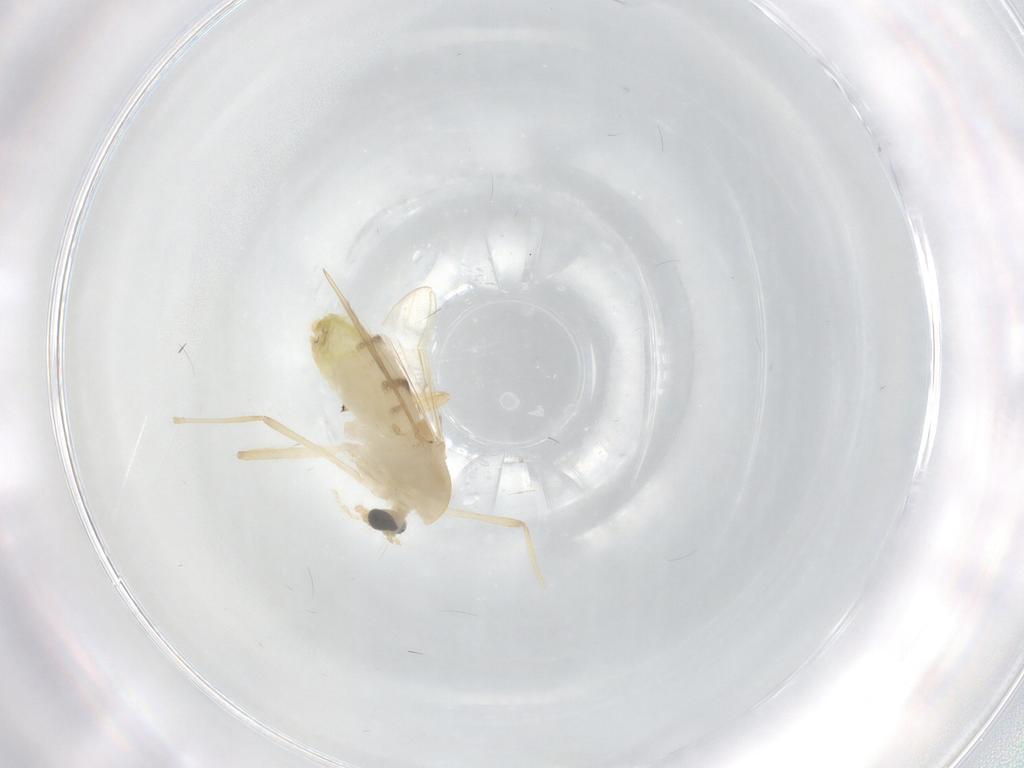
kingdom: Animalia
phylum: Arthropoda
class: Insecta
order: Diptera
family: Chironomidae
